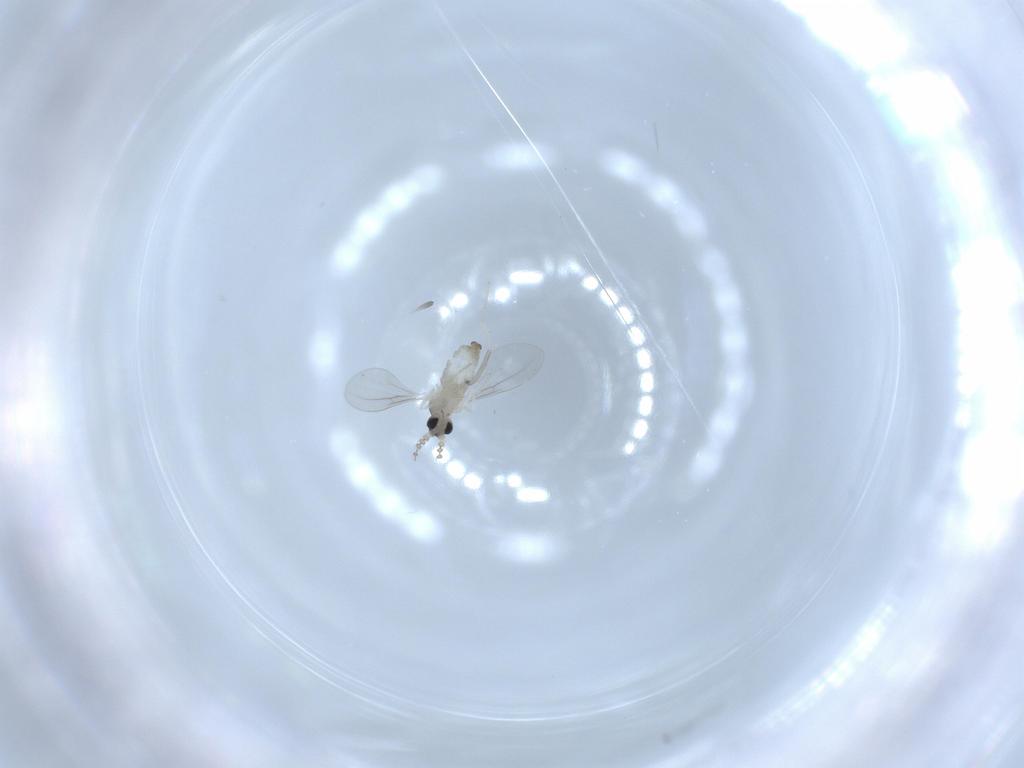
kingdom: Animalia
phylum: Arthropoda
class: Insecta
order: Diptera
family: Cecidomyiidae
